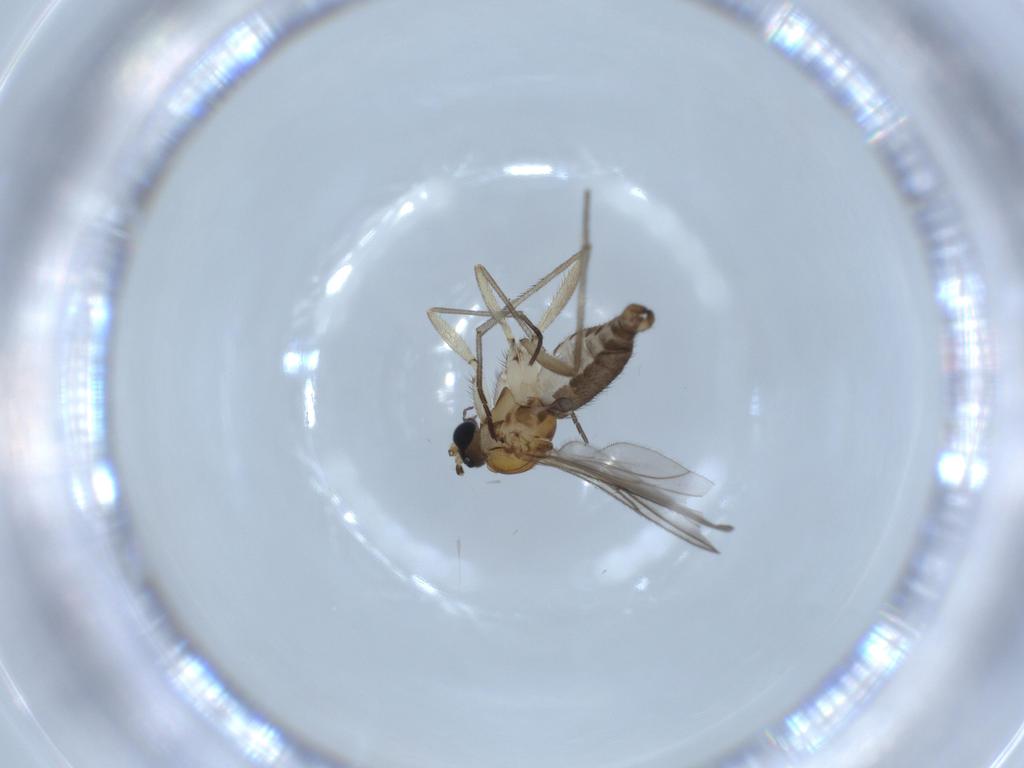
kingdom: Animalia
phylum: Arthropoda
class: Insecta
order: Diptera
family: Sciaridae
